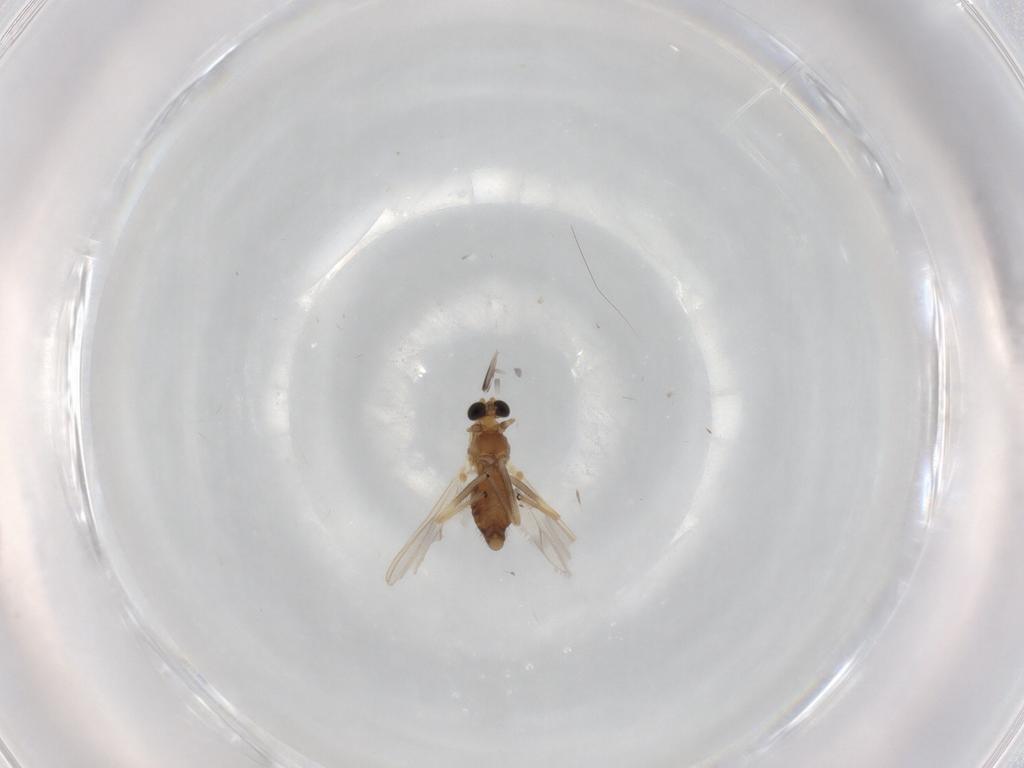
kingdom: Animalia
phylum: Arthropoda
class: Insecta
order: Diptera
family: Chironomidae
